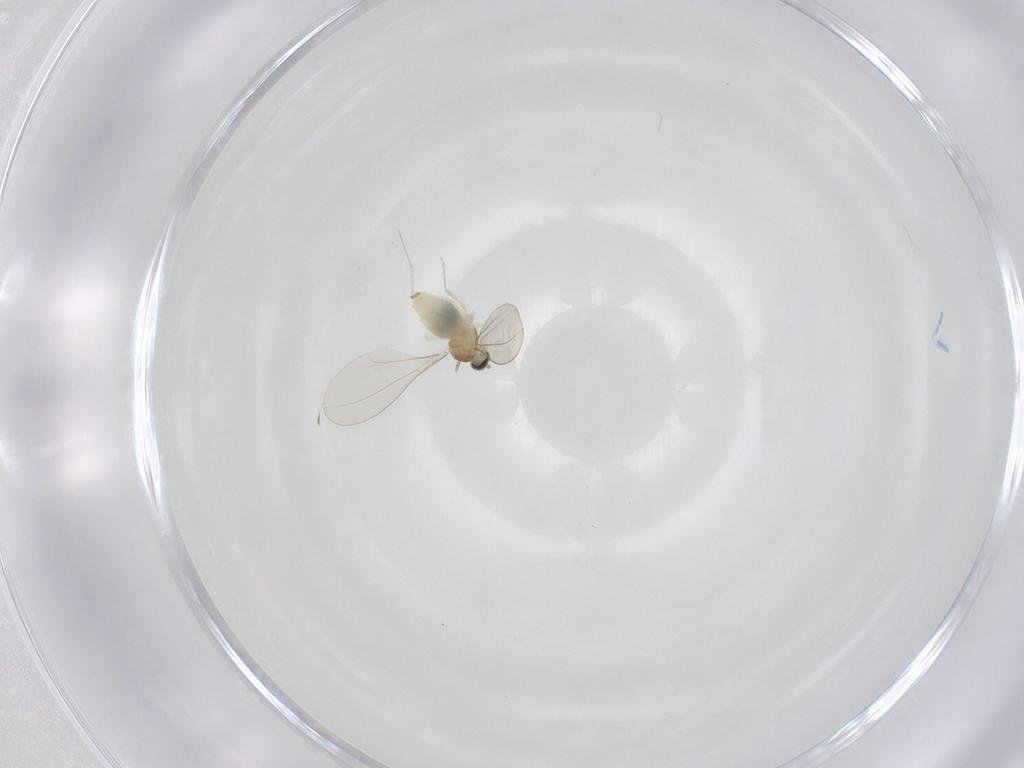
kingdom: Animalia
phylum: Arthropoda
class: Insecta
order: Diptera
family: Cecidomyiidae
